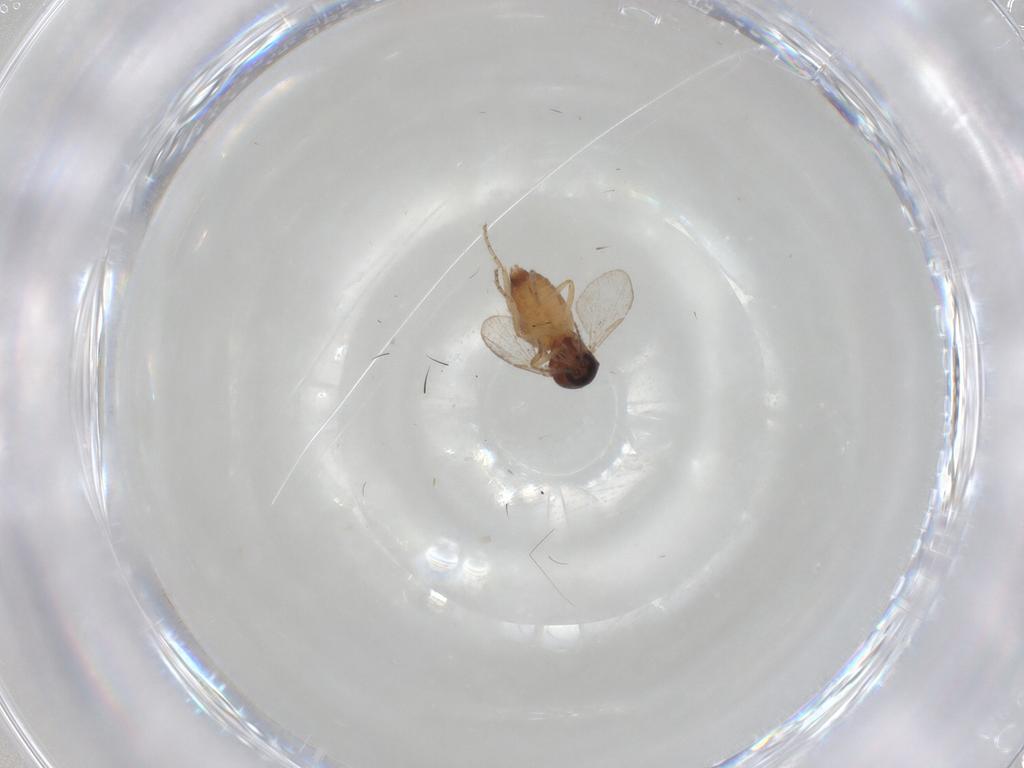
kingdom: Animalia
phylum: Arthropoda
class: Insecta
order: Diptera
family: Ceratopogonidae
